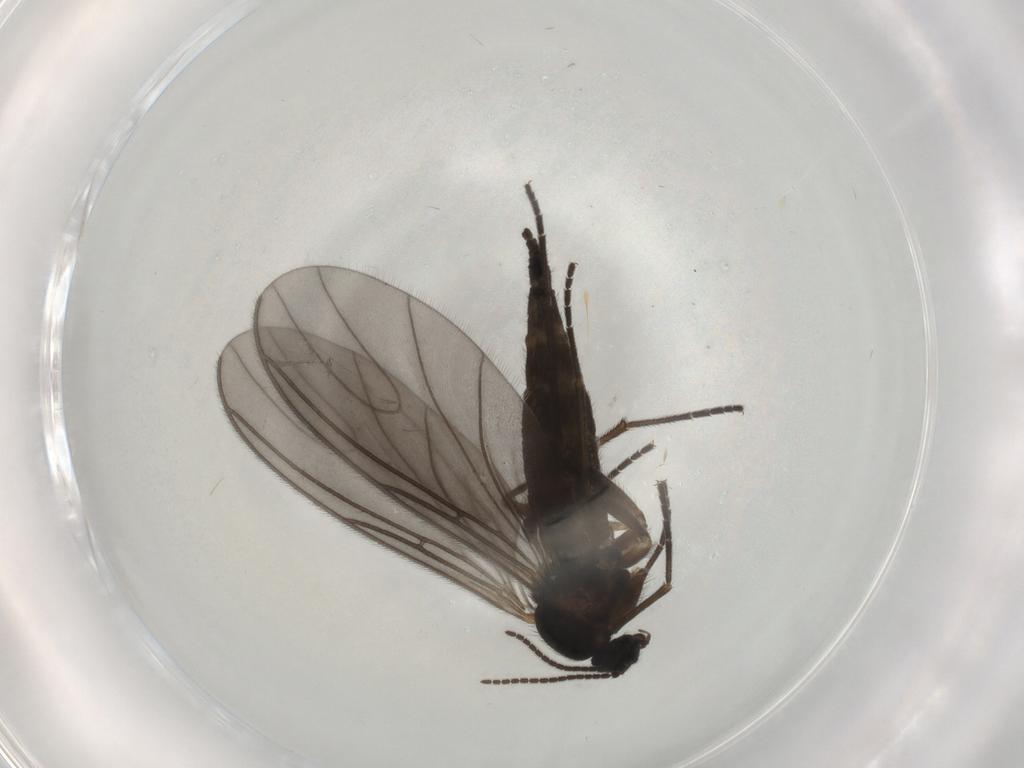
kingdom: Animalia
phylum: Arthropoda
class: Insecta
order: Diptera
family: Sciaridae
